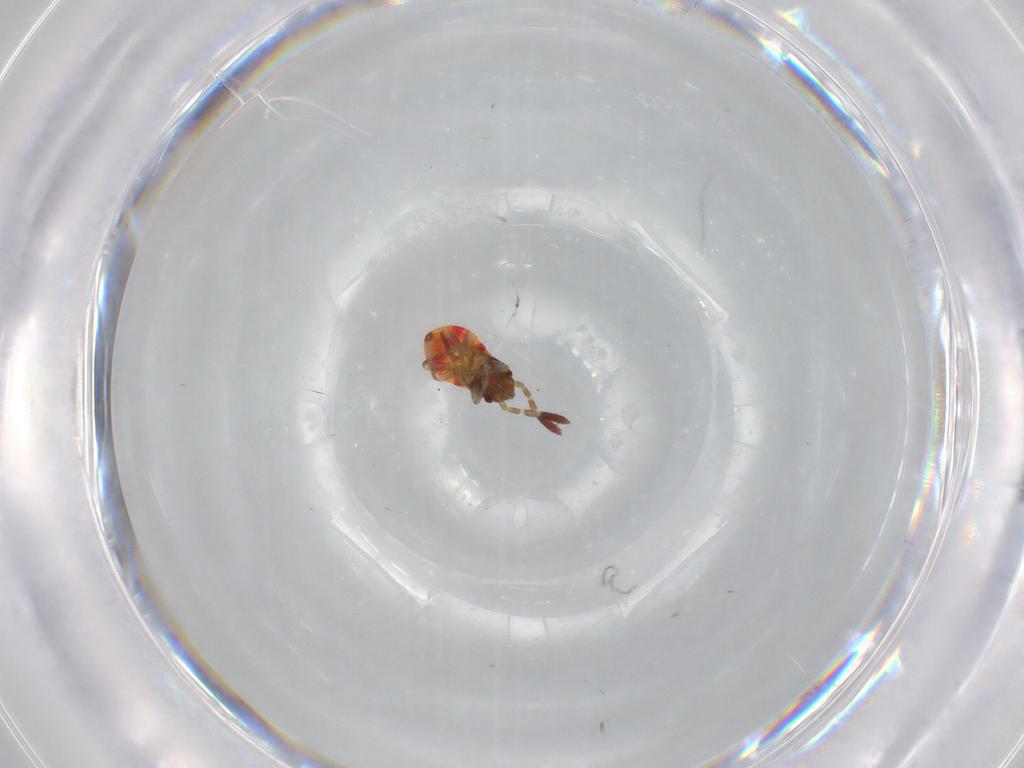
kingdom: Animalia
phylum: Arthropoda
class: Insecta
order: Hemiptera
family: Rhyparochromidae
